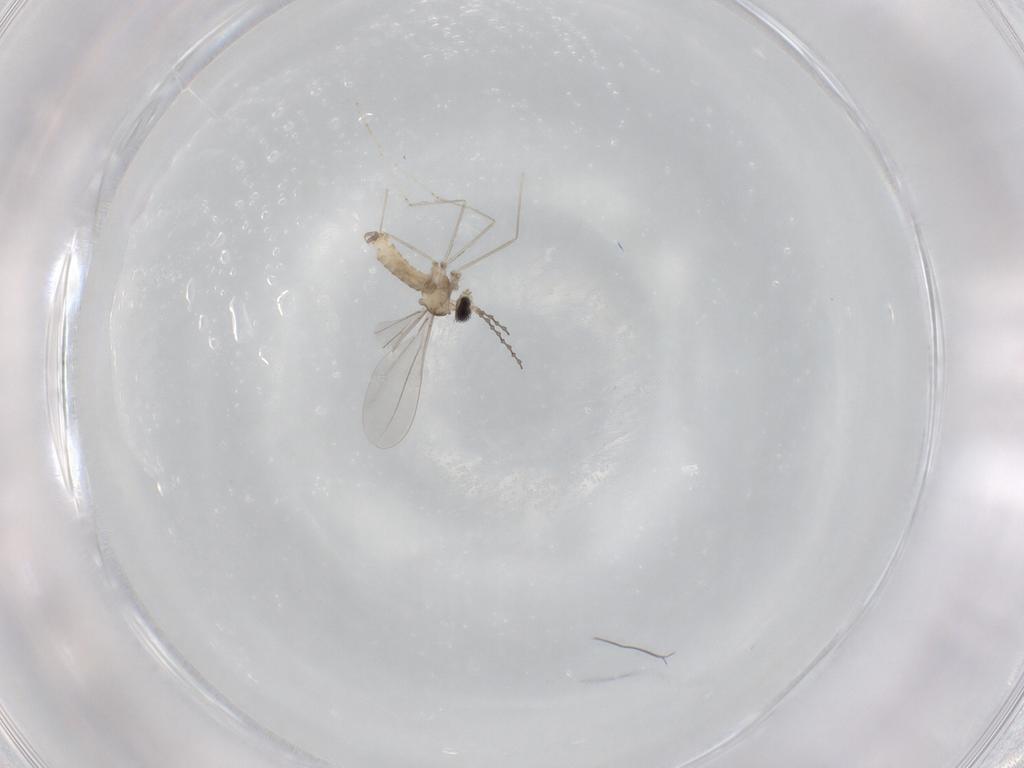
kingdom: Animalia
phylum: Arthropoda
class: Insecta
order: Diptera
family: Cecidomyiidae
